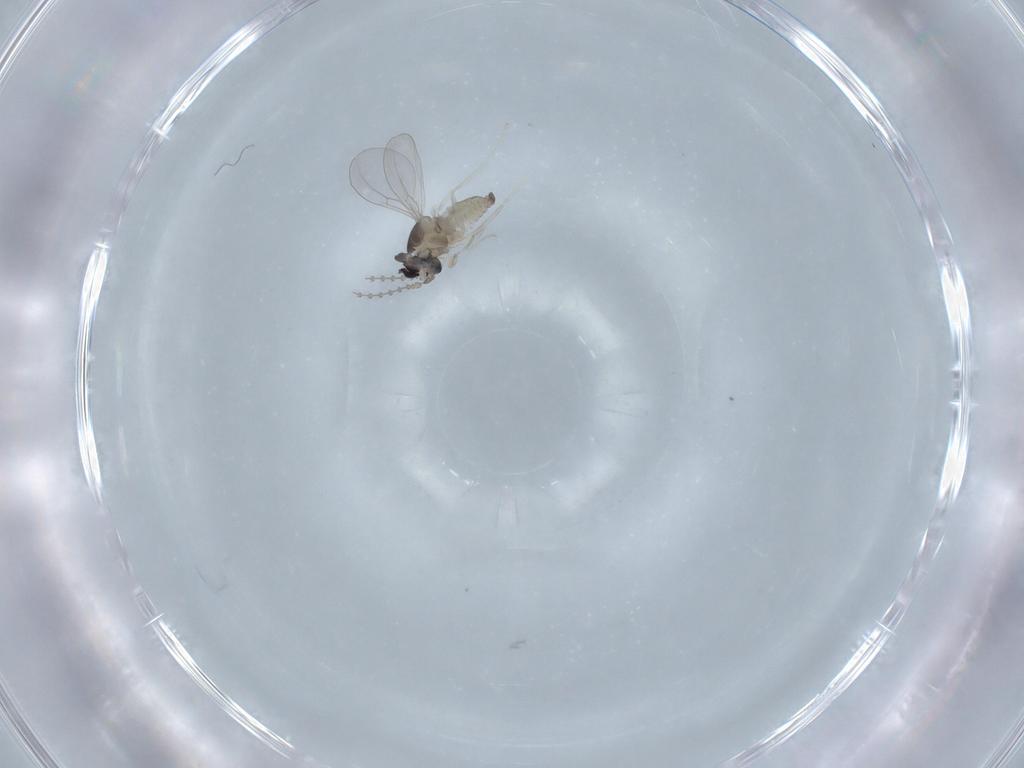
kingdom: Animalia
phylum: Arthropoda
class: Insecta
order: Diptera
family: Cecidomyiidae
